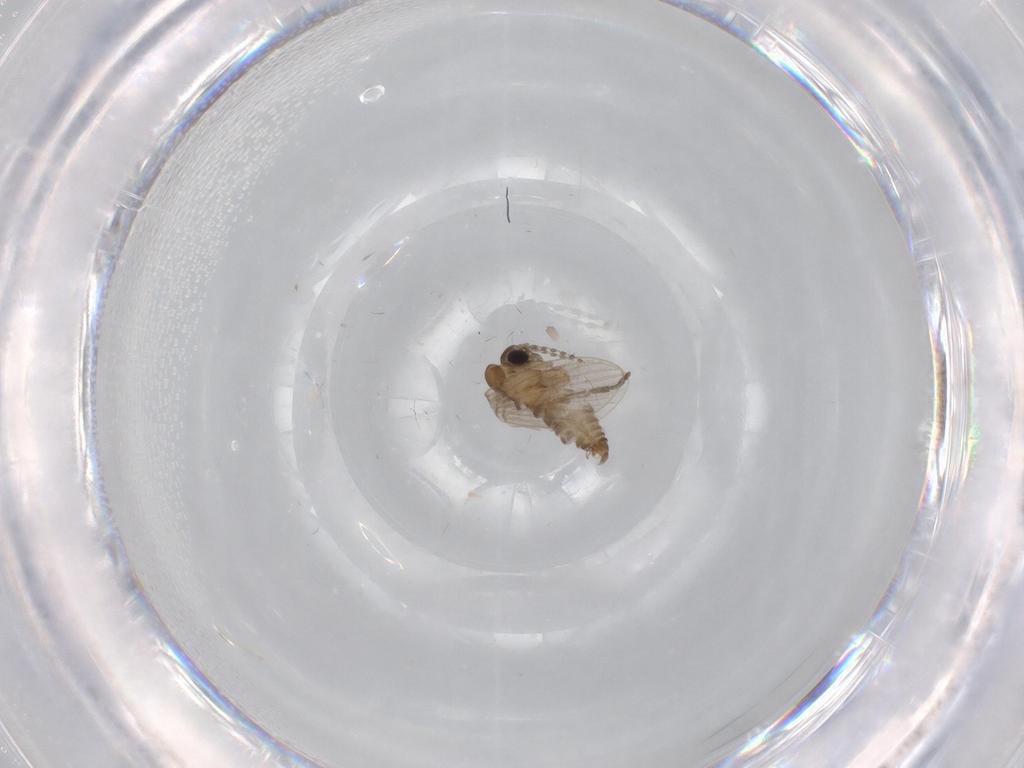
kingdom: Animalia
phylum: Arthropoda
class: Insecta
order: Diptera
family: Psychodidae
